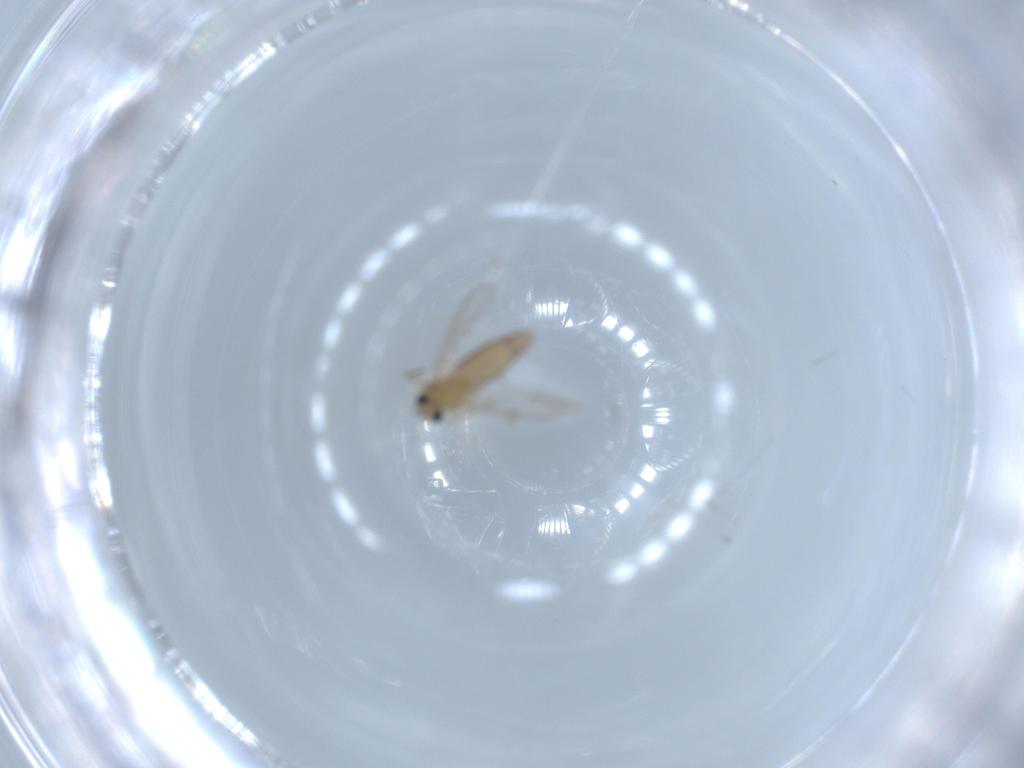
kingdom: Animalia
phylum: Arthropoda
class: Insecta
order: Diptera
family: Chironomidae
